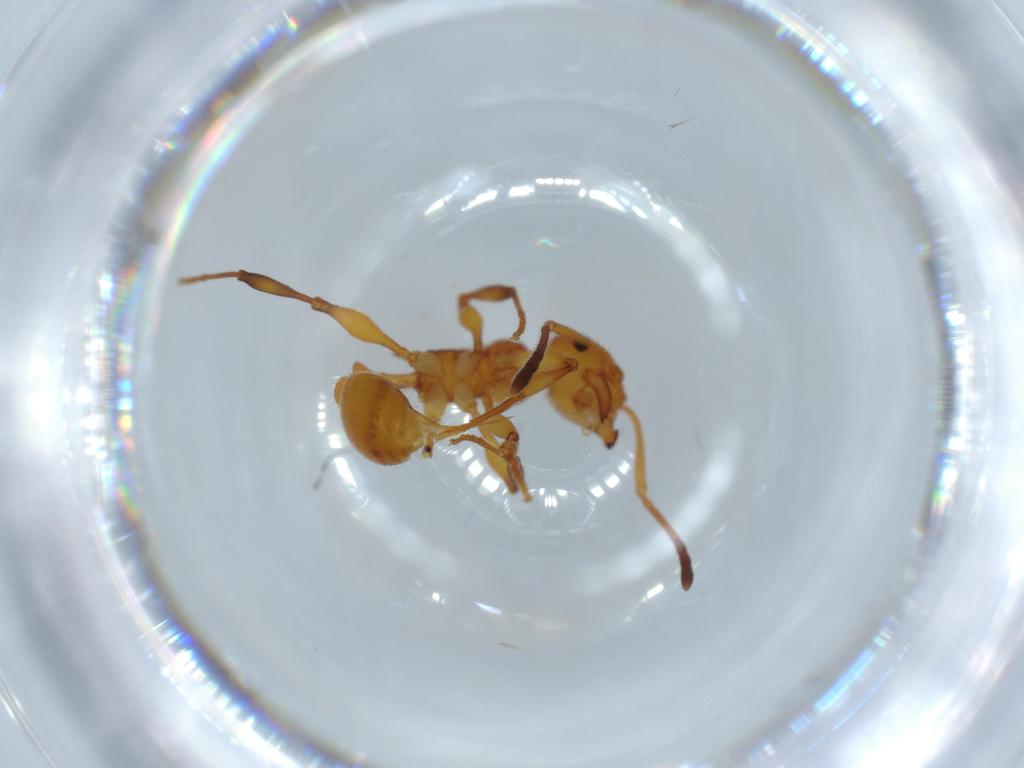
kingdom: Animalia
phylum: Arthropoda
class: Insecta
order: Hymenoptera
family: Formicidae
